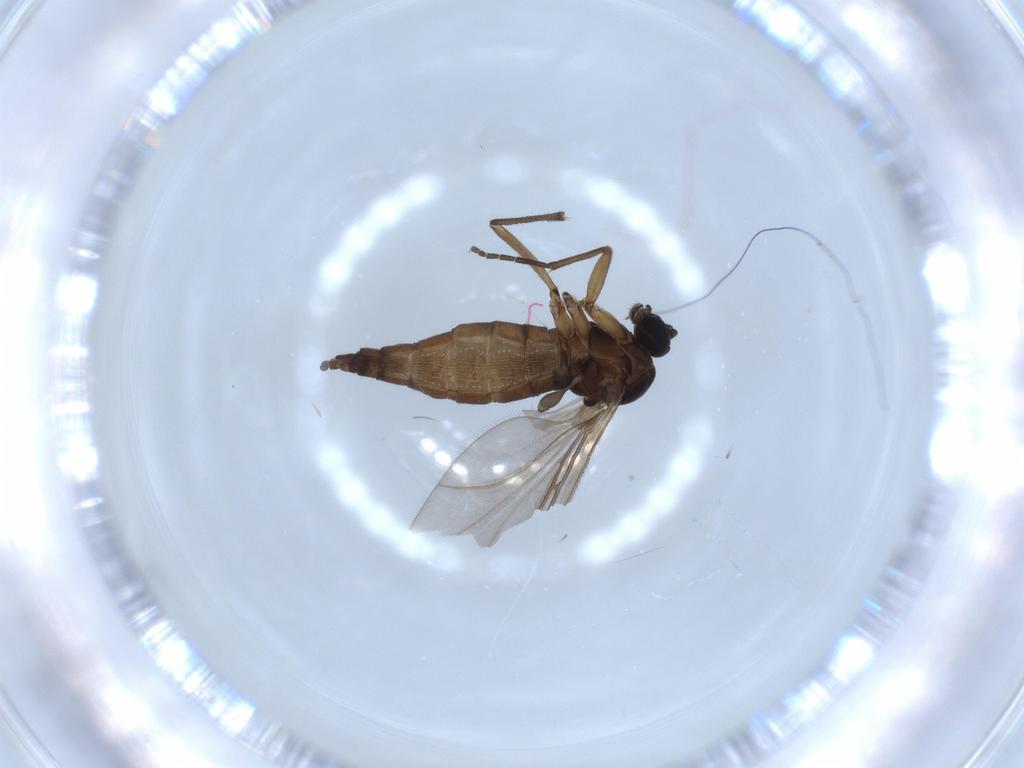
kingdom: Animalia
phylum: Arthropoda
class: Insecta
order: Diptera
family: Sciaridae
